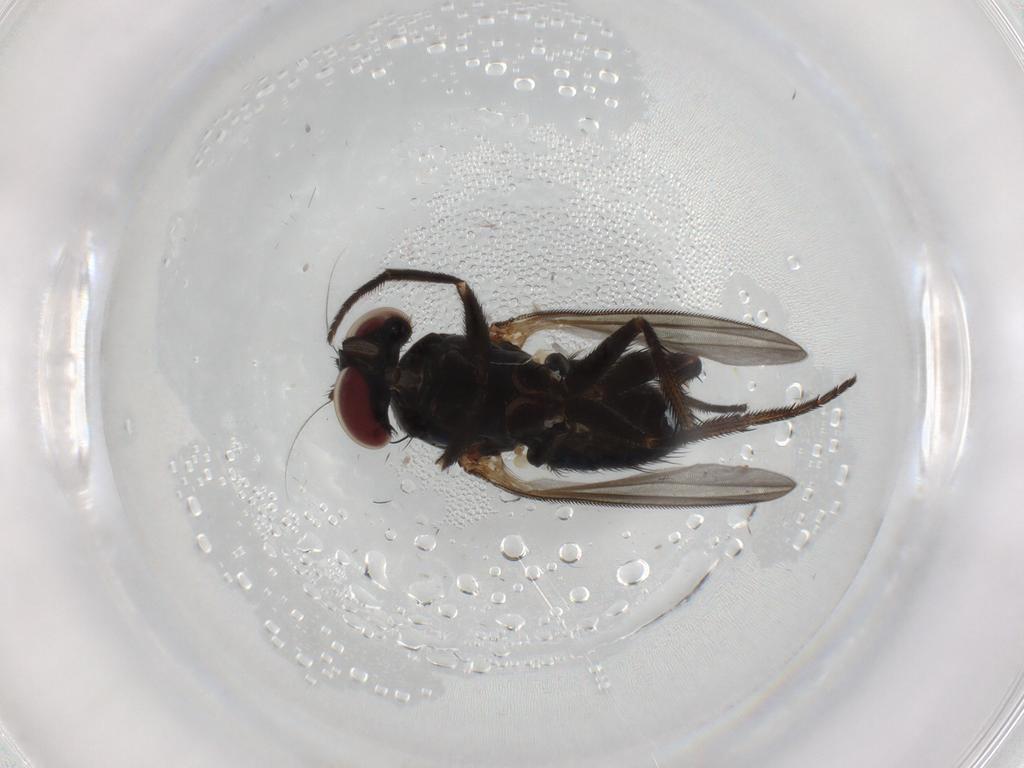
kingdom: Animalia
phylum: Arthropoda
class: Insecta
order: Diptera
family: Dolichopodidae
